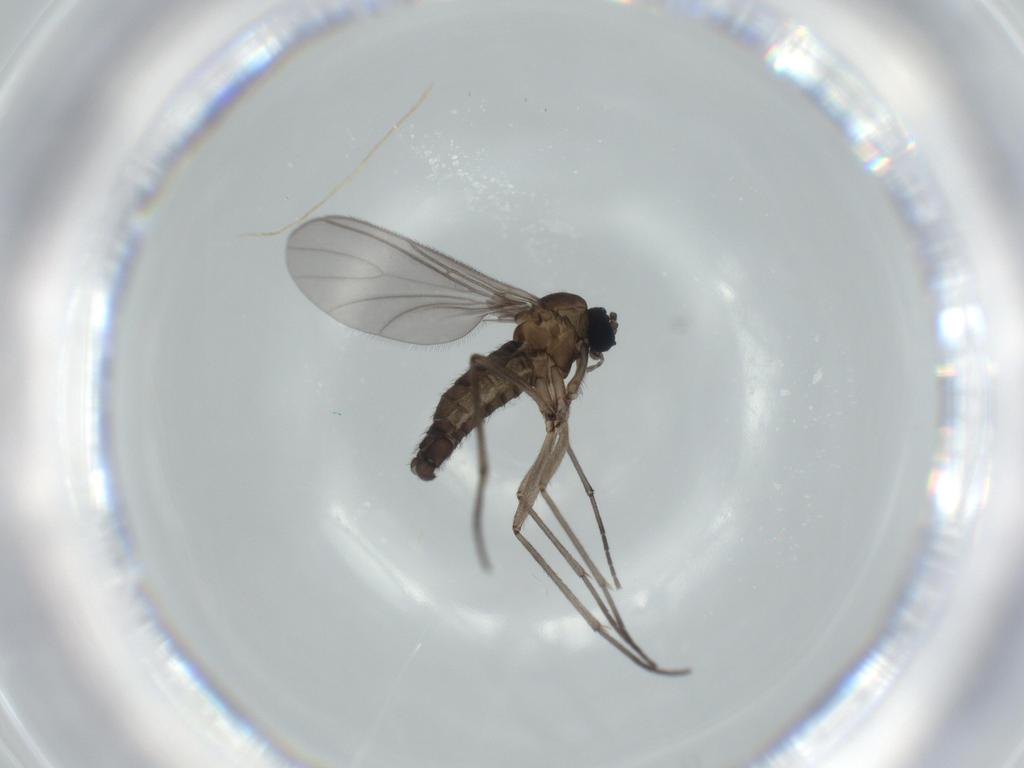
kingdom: Animalia
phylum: Arthropoda
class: Insecta
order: Diptera
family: Sciaridae
